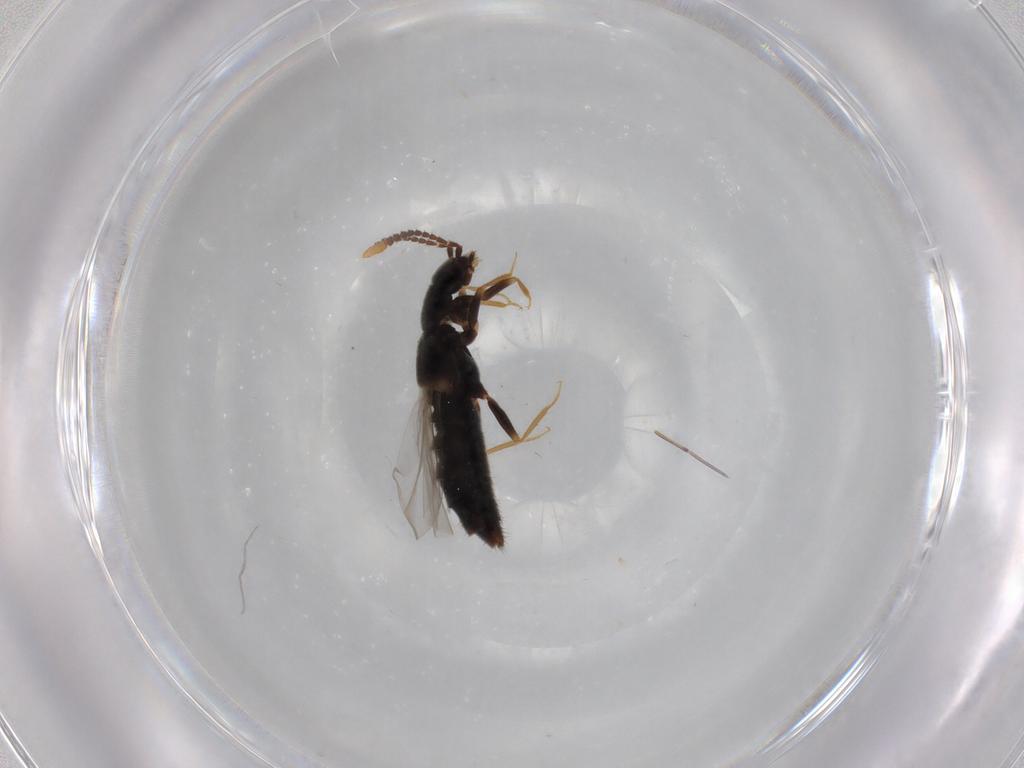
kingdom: Animalia
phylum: Arthropoda
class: Insecta
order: Coleoptera
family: Staphylinidae
